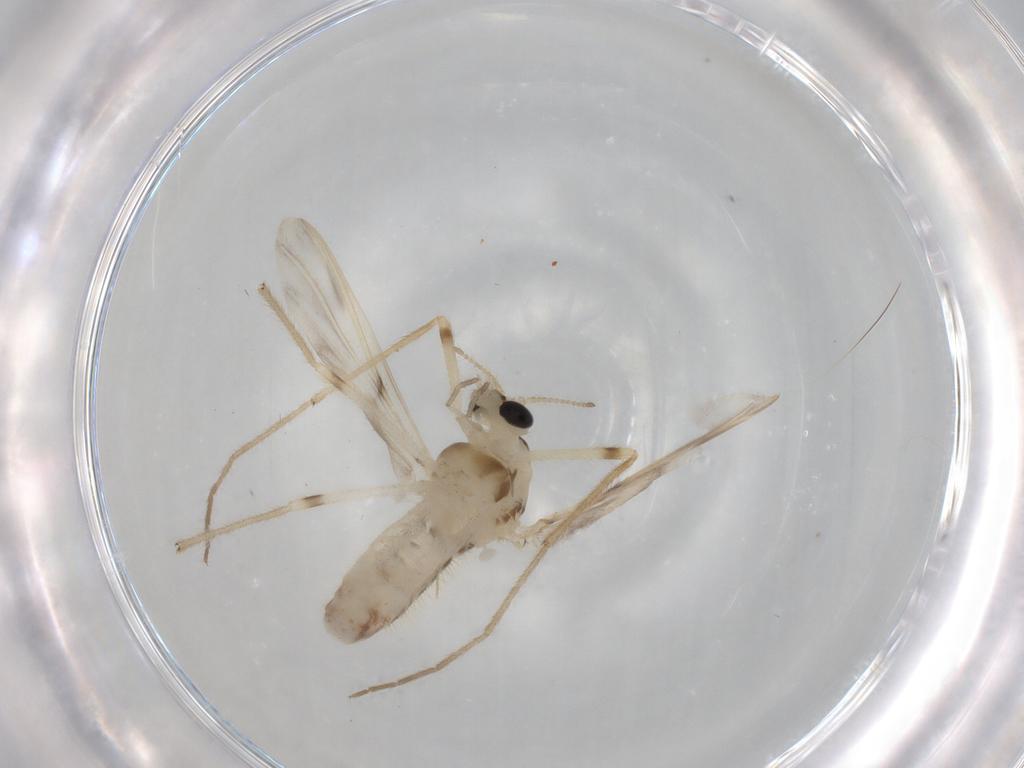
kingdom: Animalia
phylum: Arthropoda
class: Insecta
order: Diptera
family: Chironomidae
